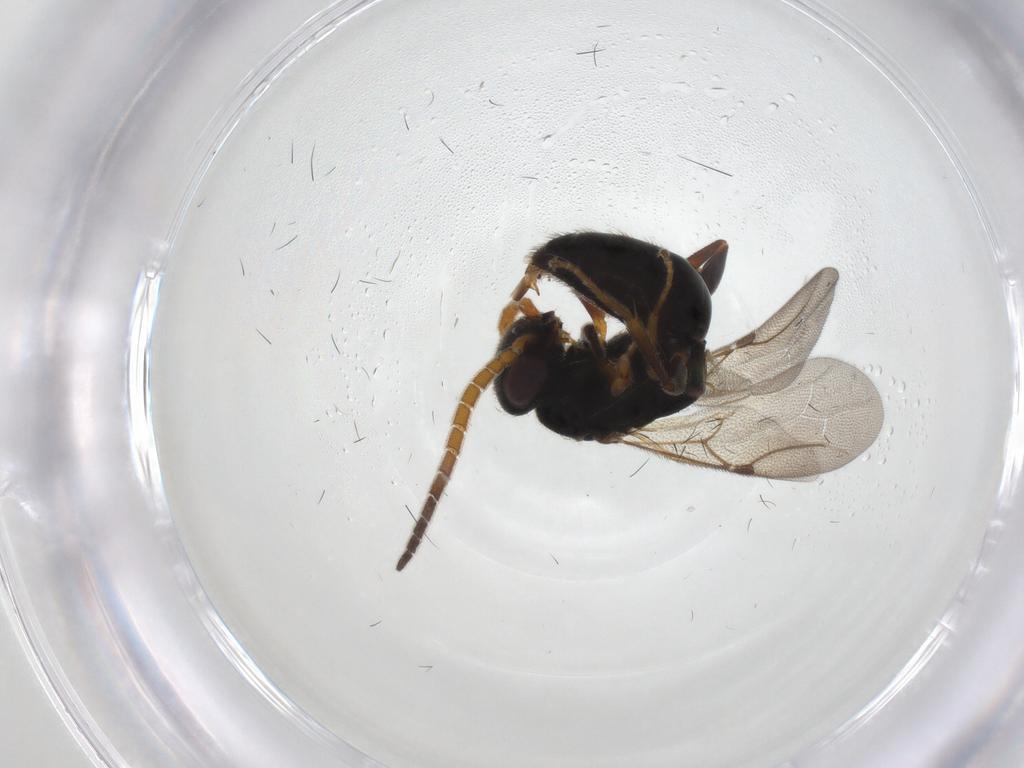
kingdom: Animalia
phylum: Arthropoda
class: Insecta
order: Hymenoptera
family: Bethylidae
